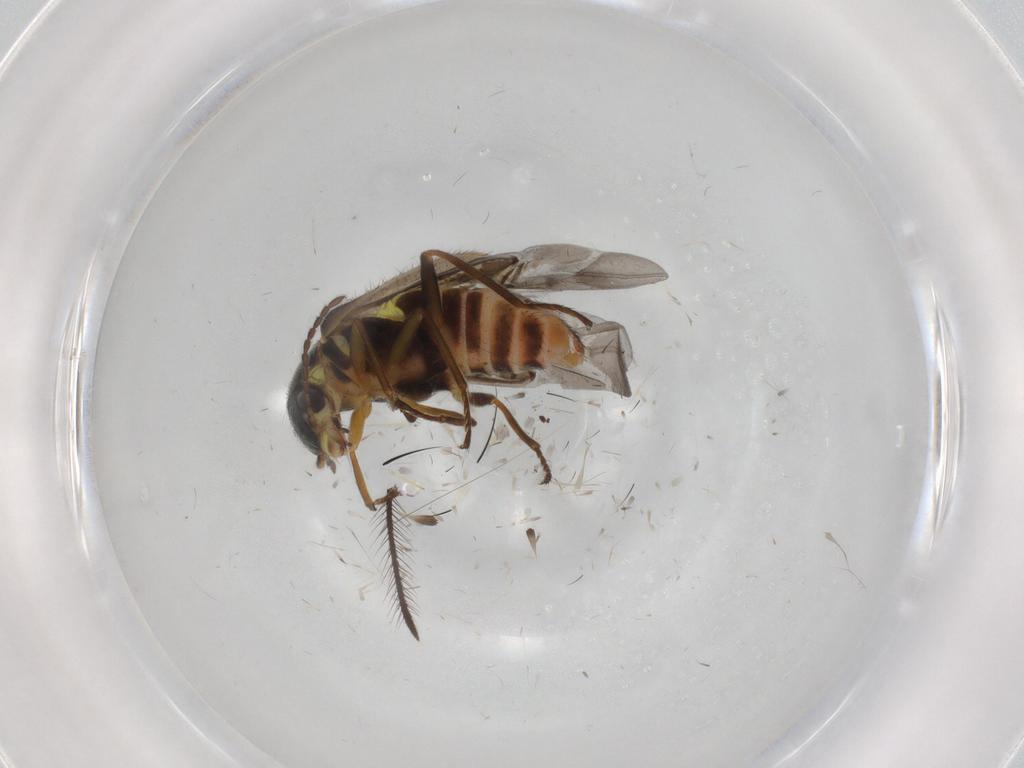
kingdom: Animalia
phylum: Arthropoda
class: Insecta
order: Coleoptera
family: Melyridae
